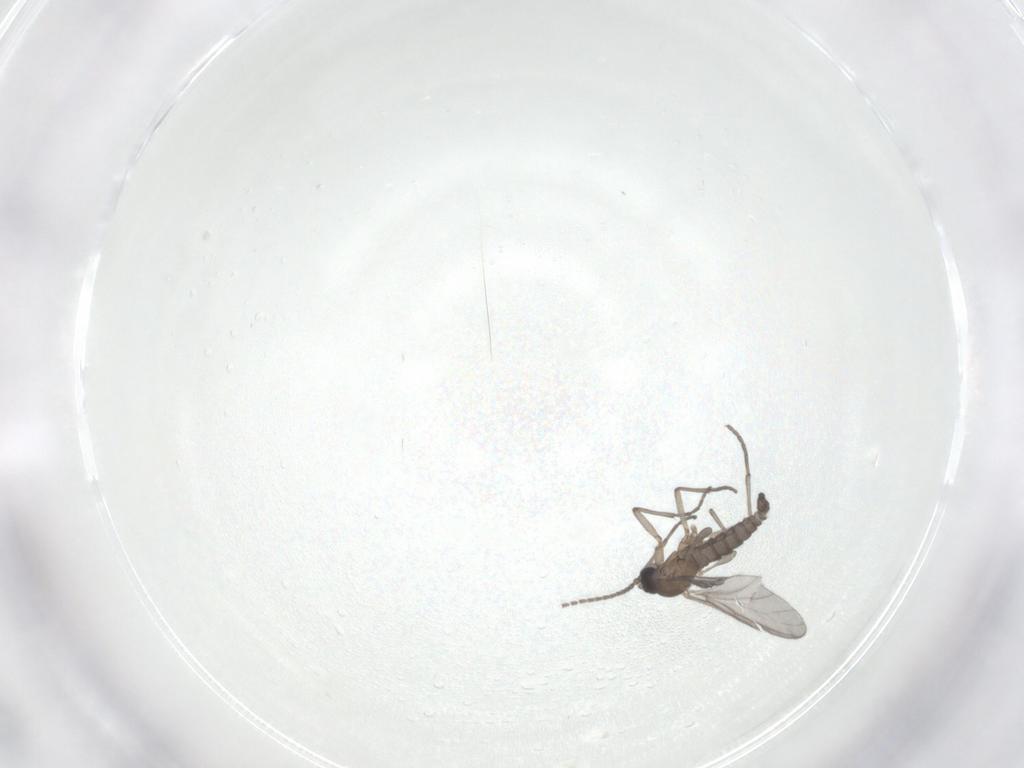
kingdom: Animalia
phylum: Arthropoda
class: Insecta
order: Diptera
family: Sciaridae
